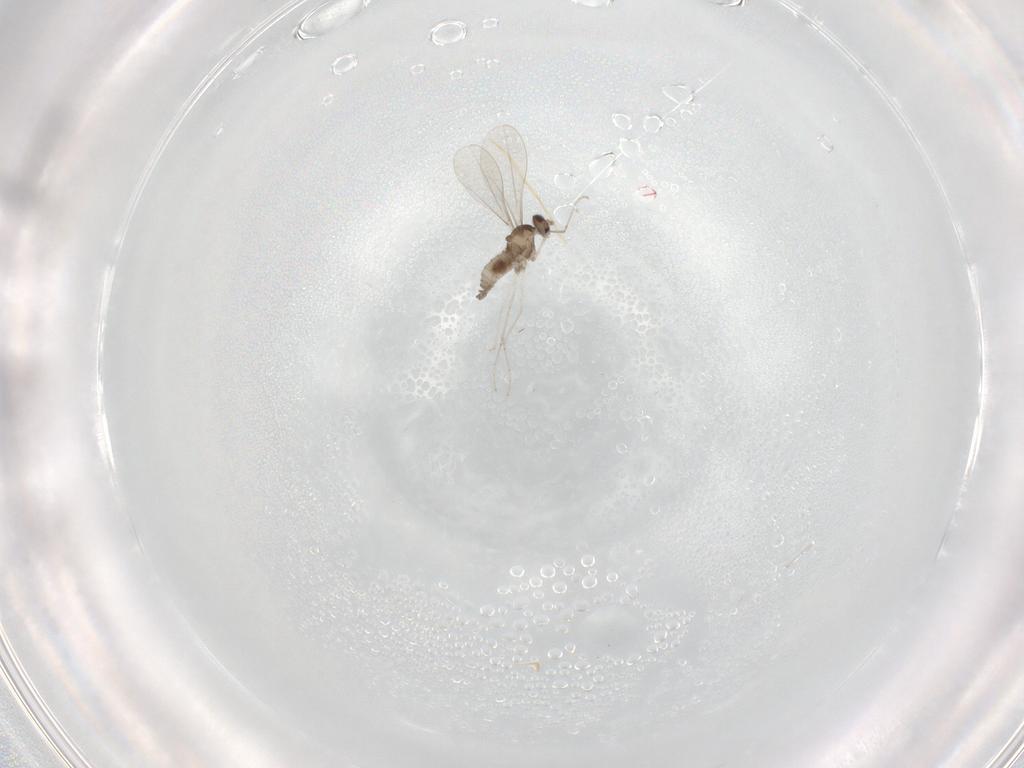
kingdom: Animalia
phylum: Arthropoda
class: Insecta
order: Diptera
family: Cecidomyiidae
